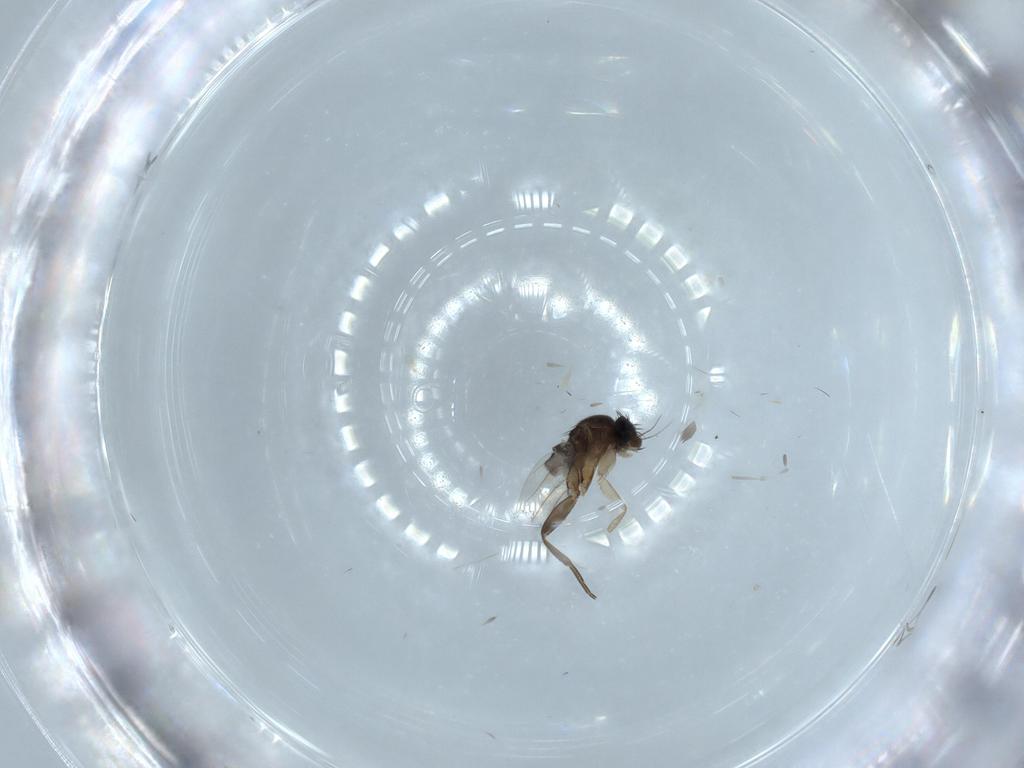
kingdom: Animalia
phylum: Arthropoda
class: Insecta
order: Diptera
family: Phoridae
